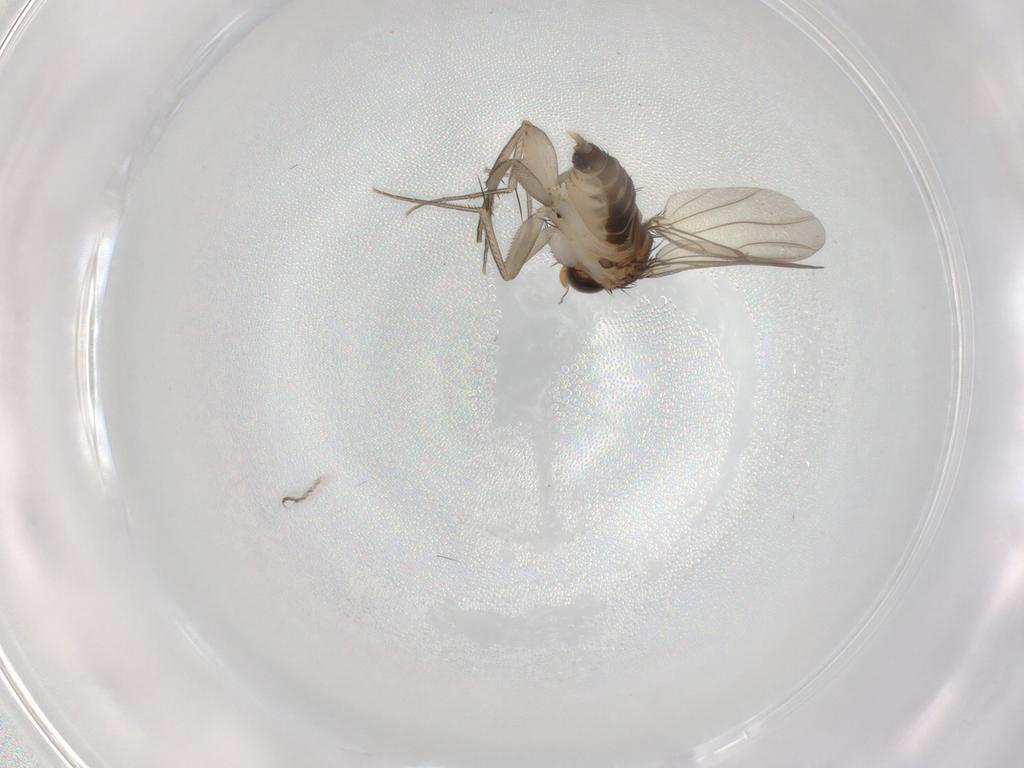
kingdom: Animalia
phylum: Arthropoda
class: Insecta
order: Diptera
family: Phoridae
